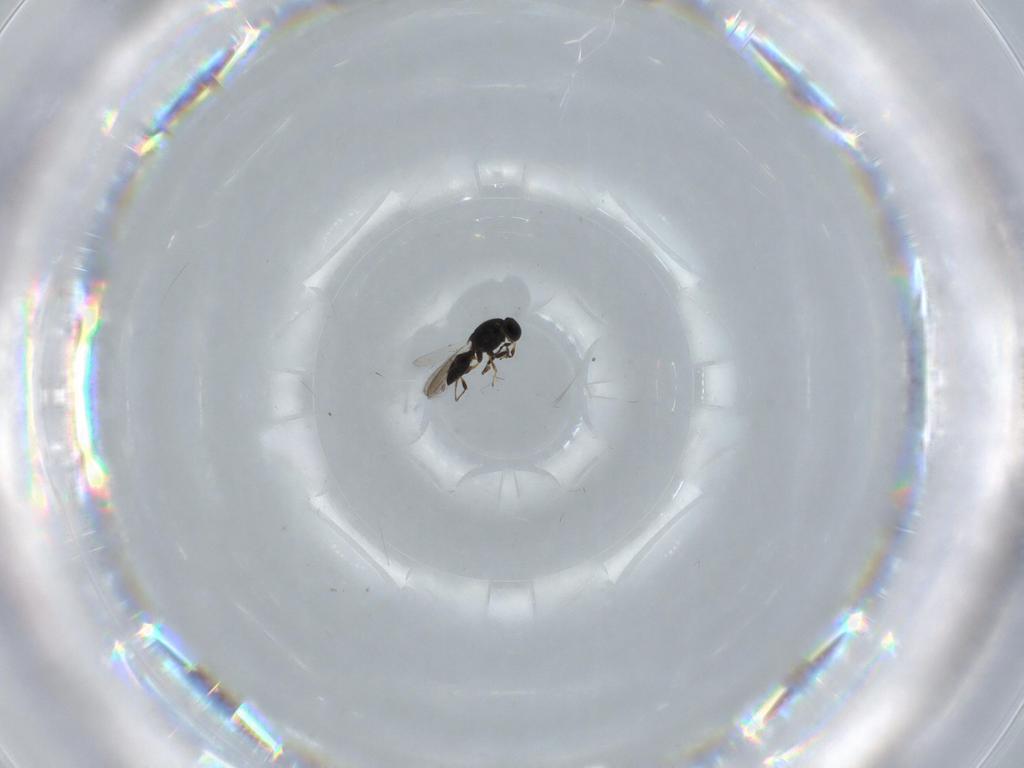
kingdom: Animalia
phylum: Arthropoda
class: Insecta
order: Hymenoptera
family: Platygastridae
